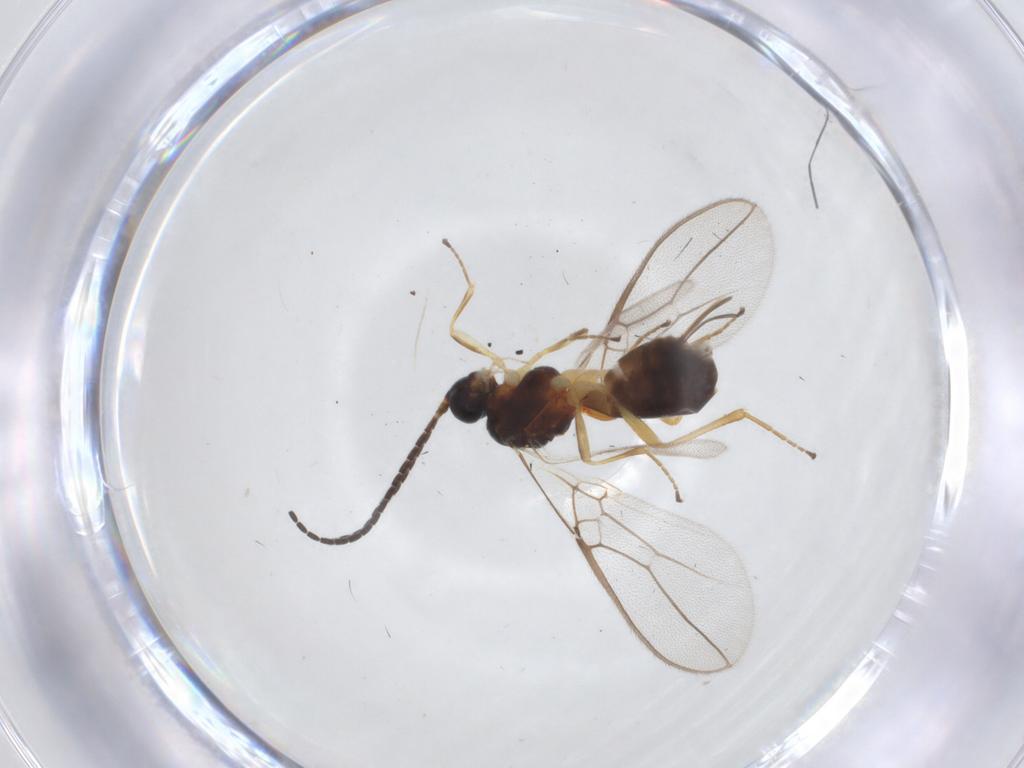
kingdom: Animalia
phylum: Arthropoda
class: Insecta
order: Hymenoptera
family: Braconidae
